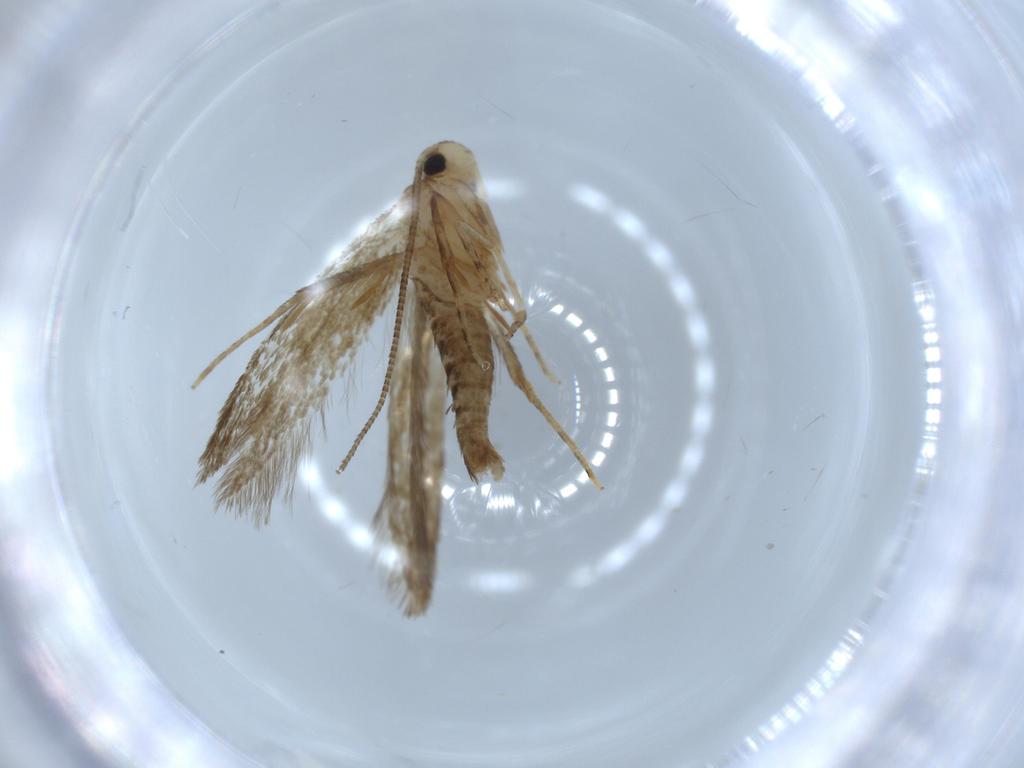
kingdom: Animalia
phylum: Arthropoda
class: Insecta
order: Lepidoptera
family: Tineidae
